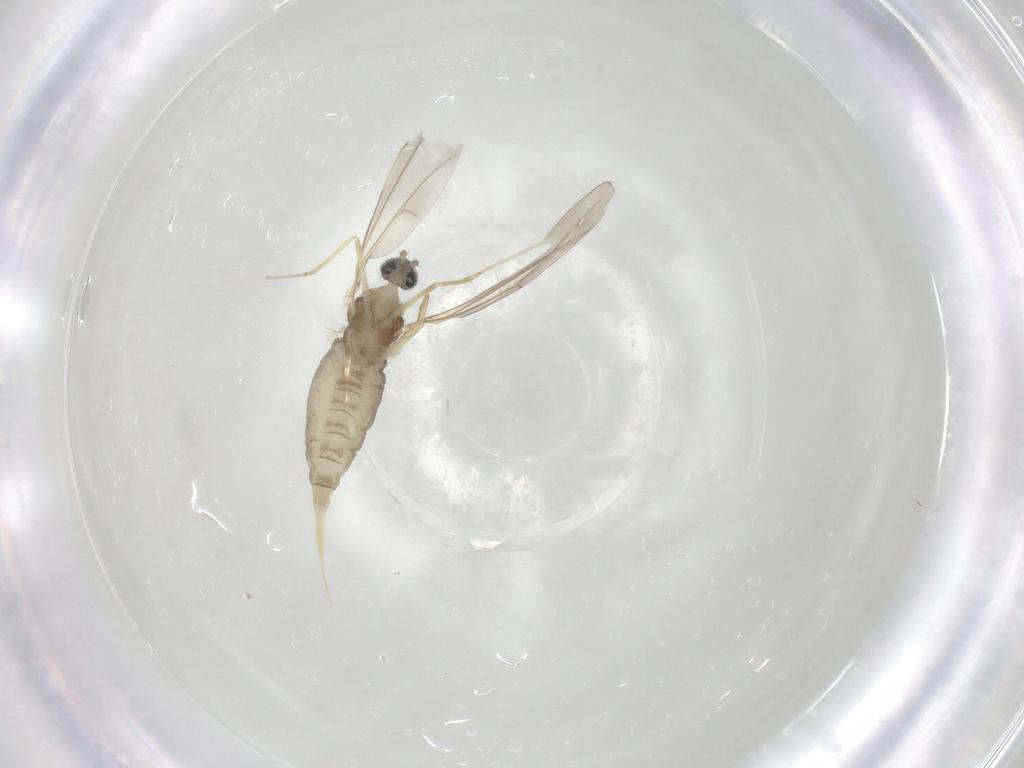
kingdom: Animalia
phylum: Arthropoda
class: Insecta
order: Diptera
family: Cecidomyiidae
